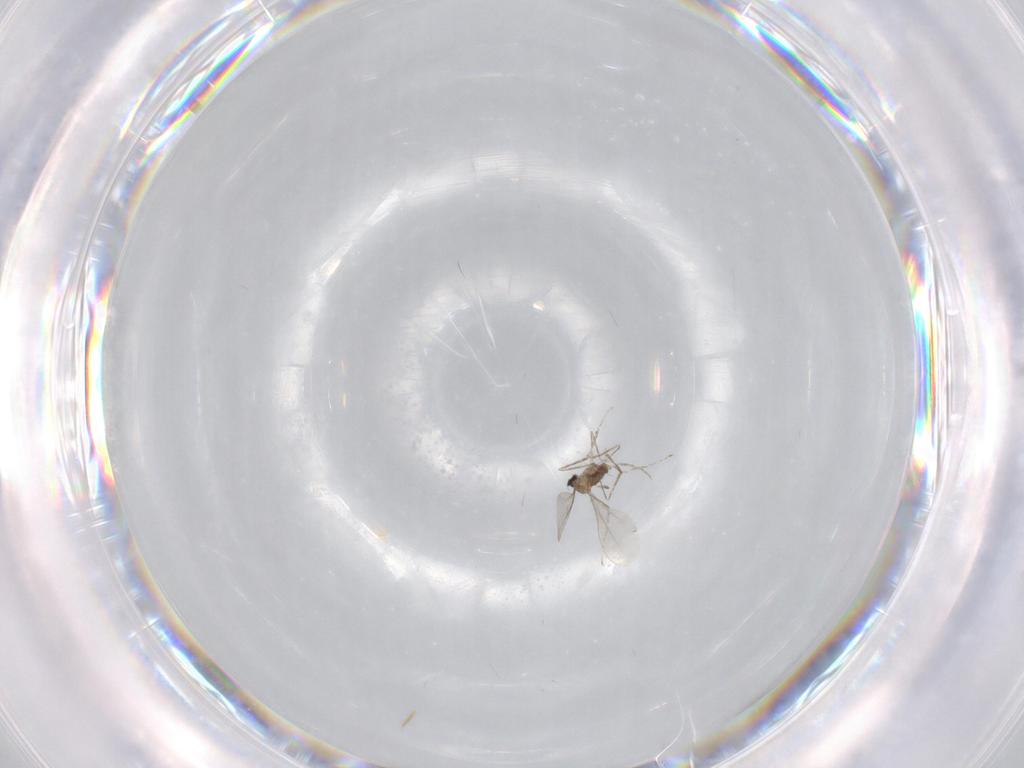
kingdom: Animalia
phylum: Arthropoda
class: Insecta
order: Diptera
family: Cecidomyiidae
